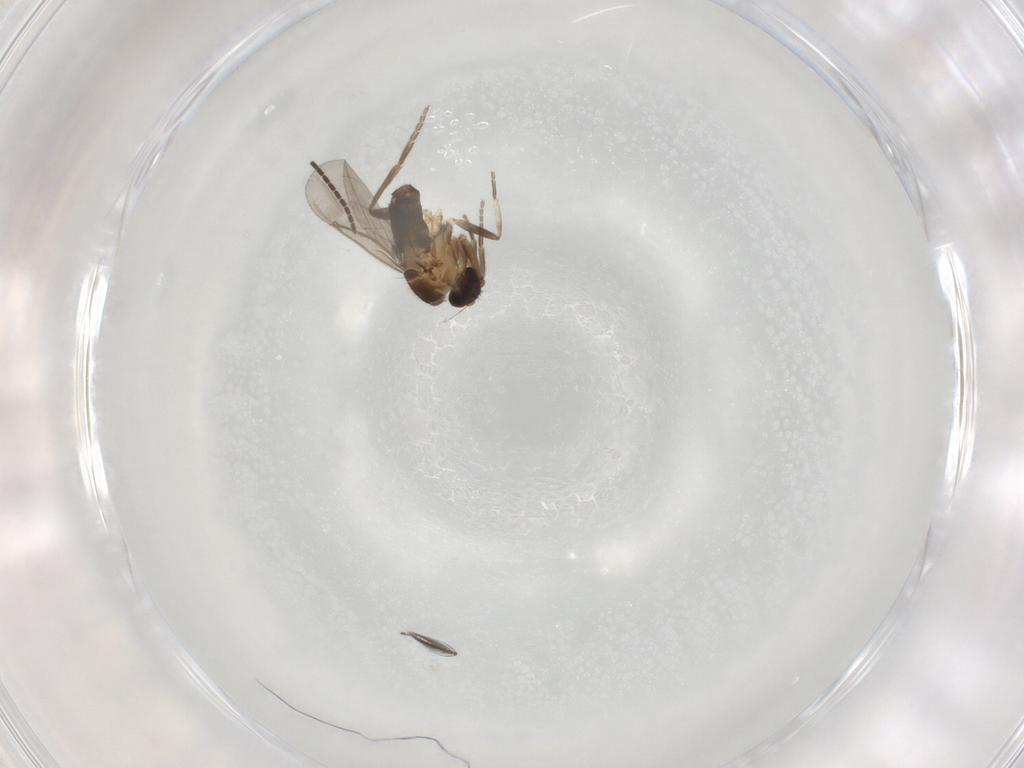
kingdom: Animalia
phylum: Arthropoda
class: Insecta
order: Diptera
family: Phoridae
